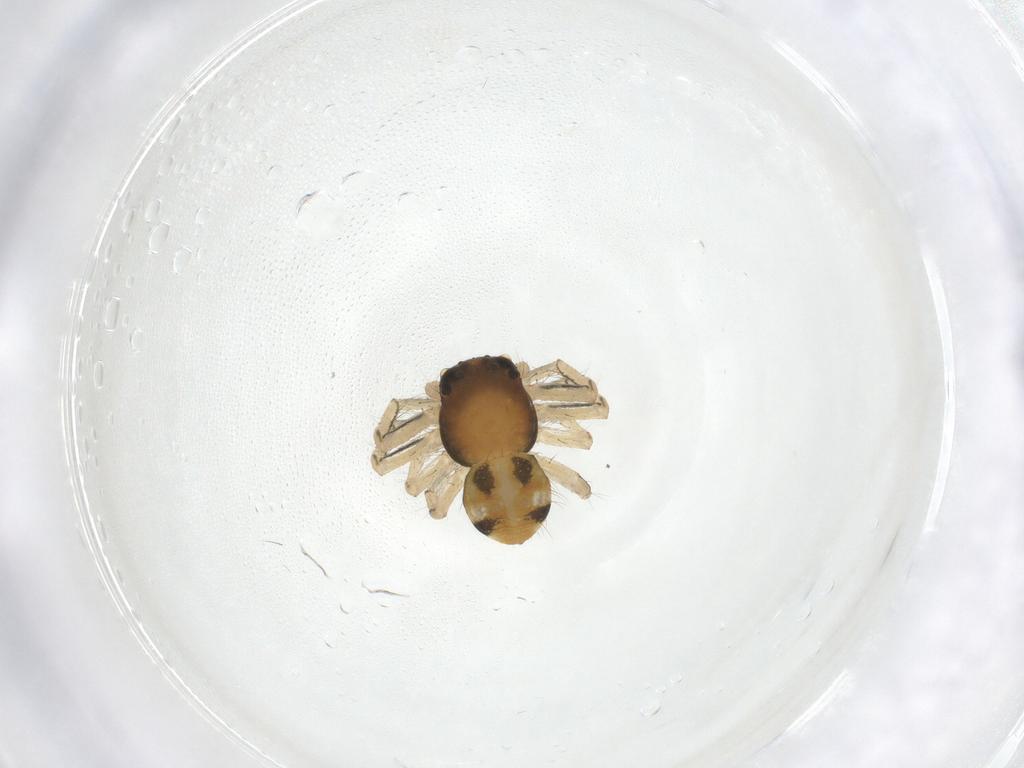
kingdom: Animalia
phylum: Arthropoda
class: Arachnida
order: Araneae
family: Thomisidae
